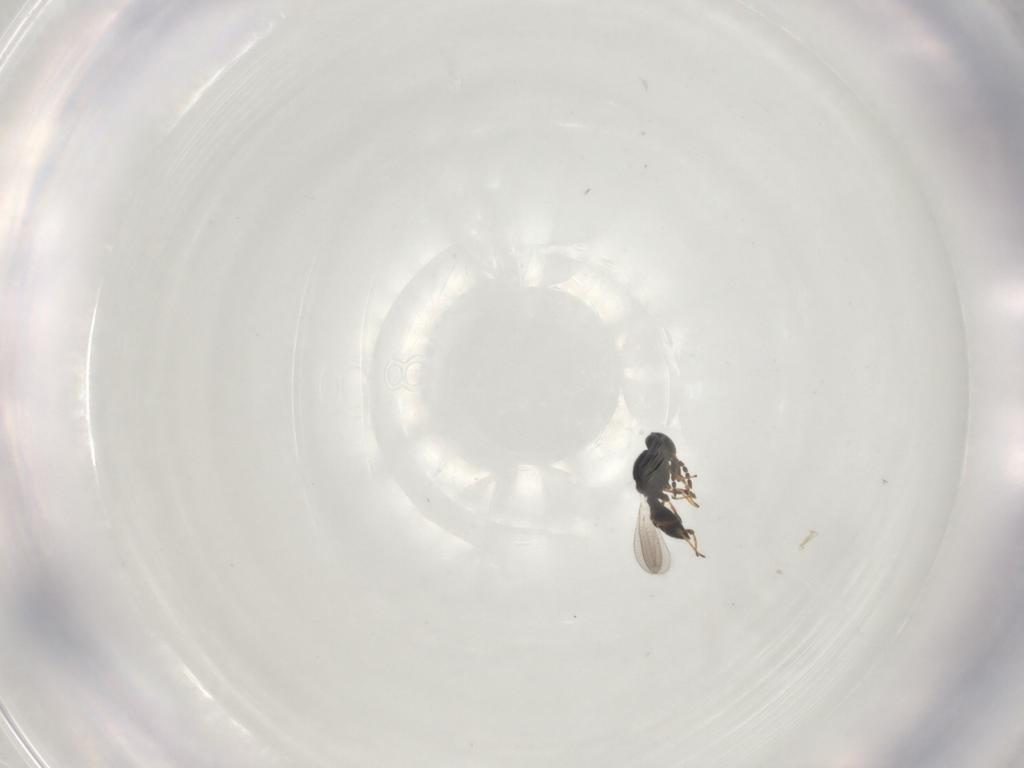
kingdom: Animalia
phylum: Arthropoda
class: Insecta
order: Hymenoptera
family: Platygastridae
